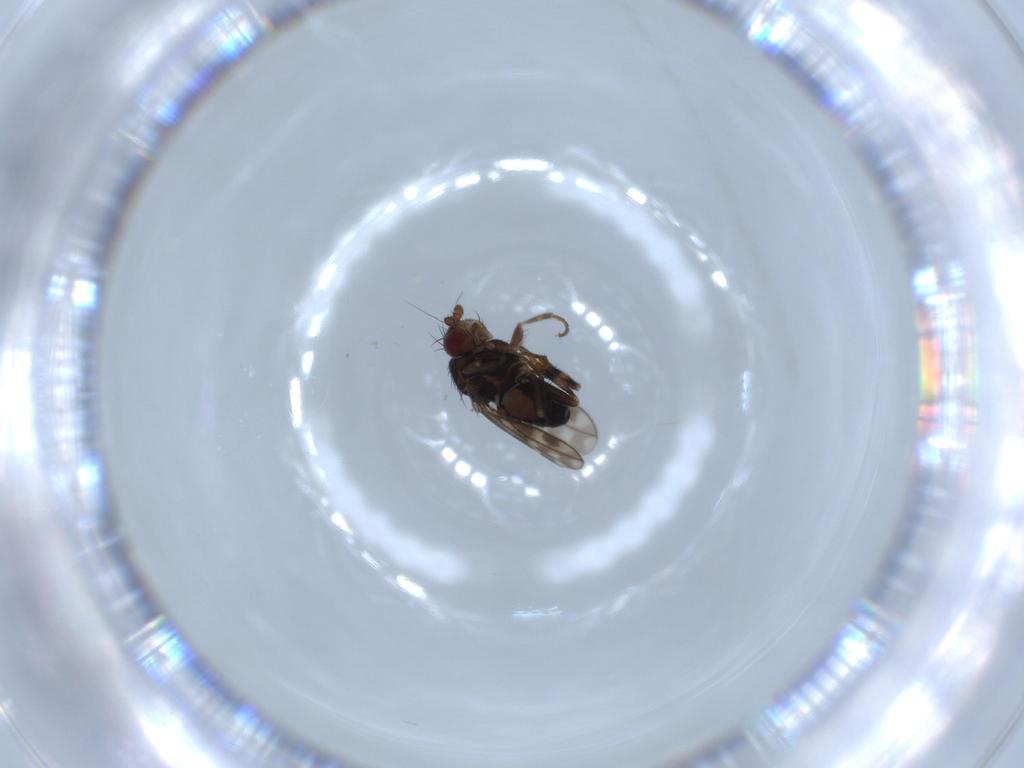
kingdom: Animalia
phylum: Arthropoda
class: Insecta
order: Diptera
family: Sphaeroceridae
